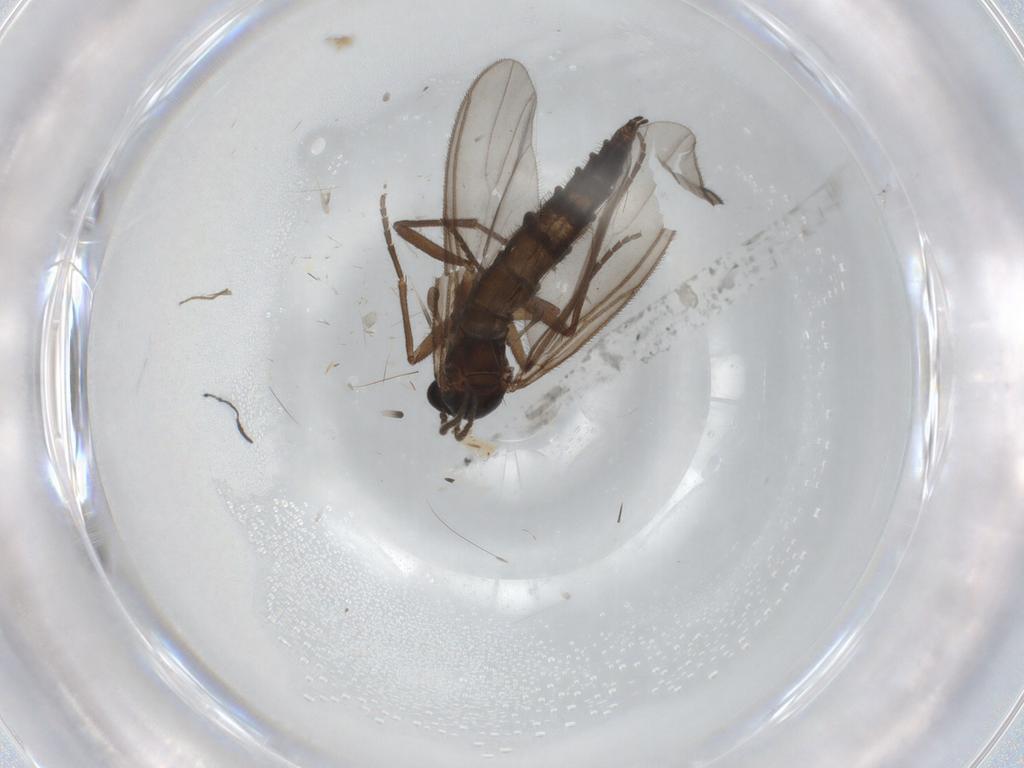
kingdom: Animalia
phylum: Arthropoda
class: Insecta
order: Diptera
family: Sciaridae
